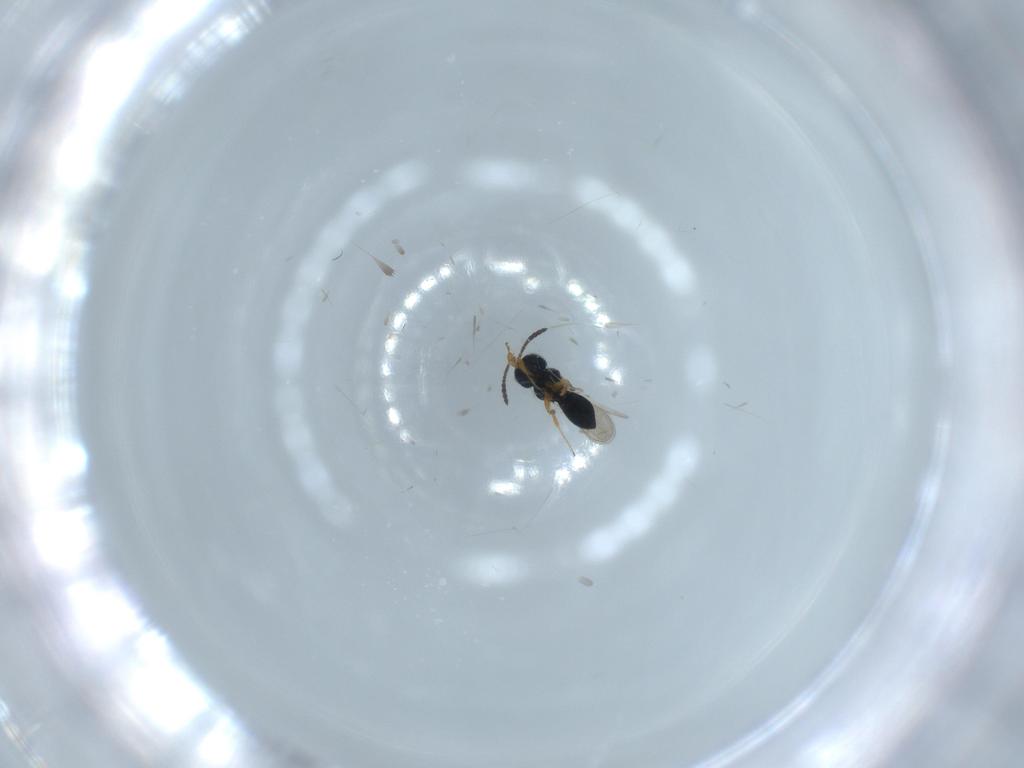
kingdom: Animalia
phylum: Arthropoda
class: Insecta
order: Hymenoptera
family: Scelionidae
